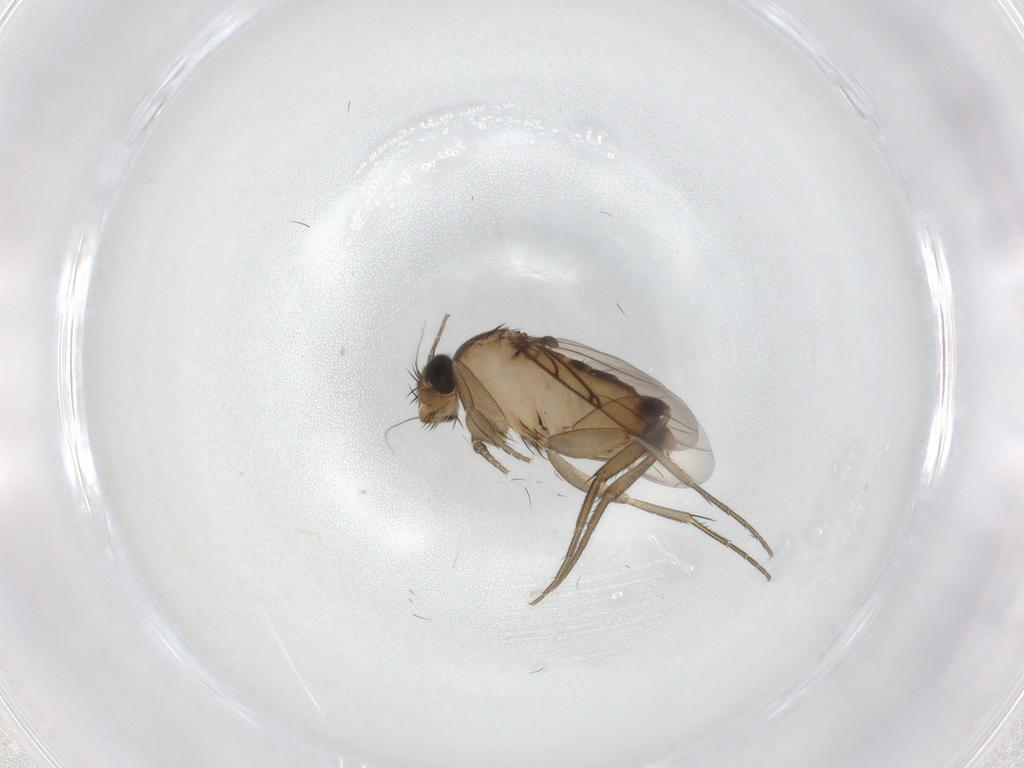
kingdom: Animalia
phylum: Arthropoda
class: Insecta
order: Diptera
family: Phoridae
